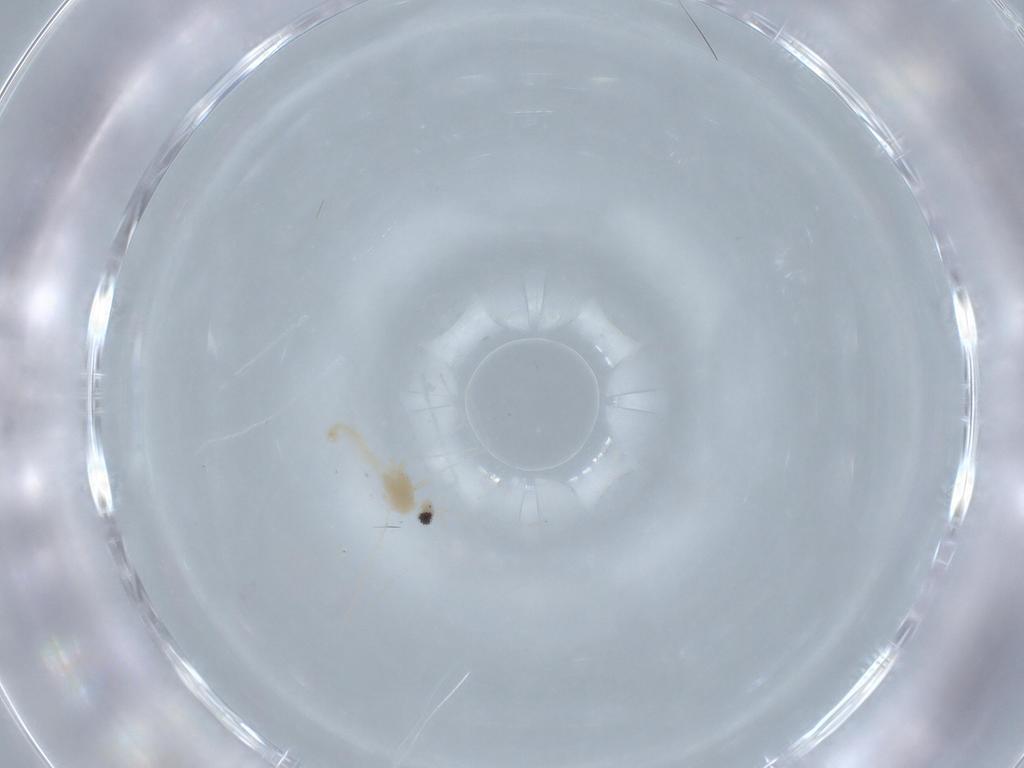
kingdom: Animalia
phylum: Arthropoda
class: Insecta
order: Diptera
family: Cecidomyiidae
